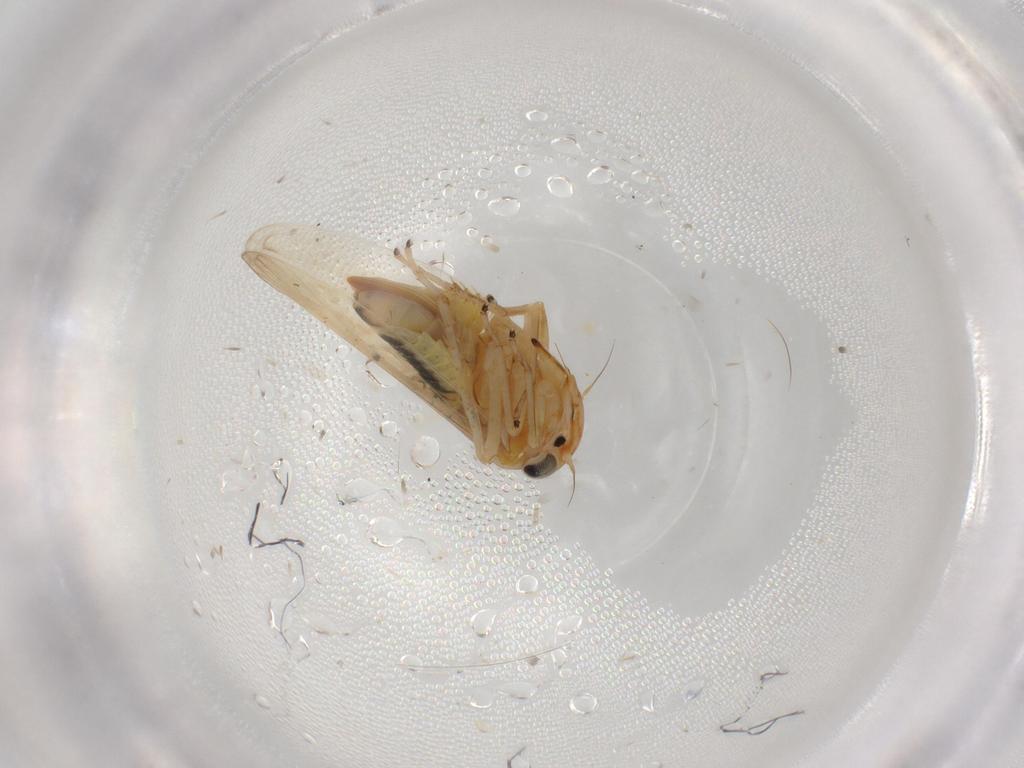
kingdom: Animalia
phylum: Arthropoda
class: Insecta
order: Hemiptera
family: Cicadellidae
